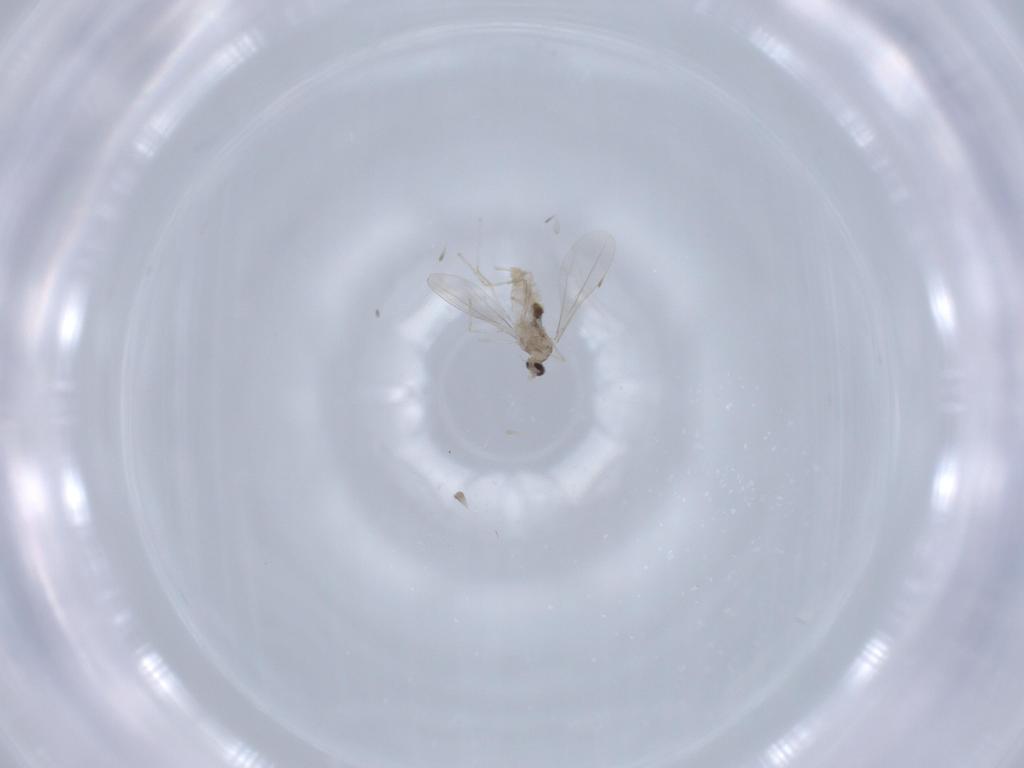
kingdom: Animalia
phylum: Arthropoda
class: Insecta
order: Diptera
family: Cecidomyiidae
